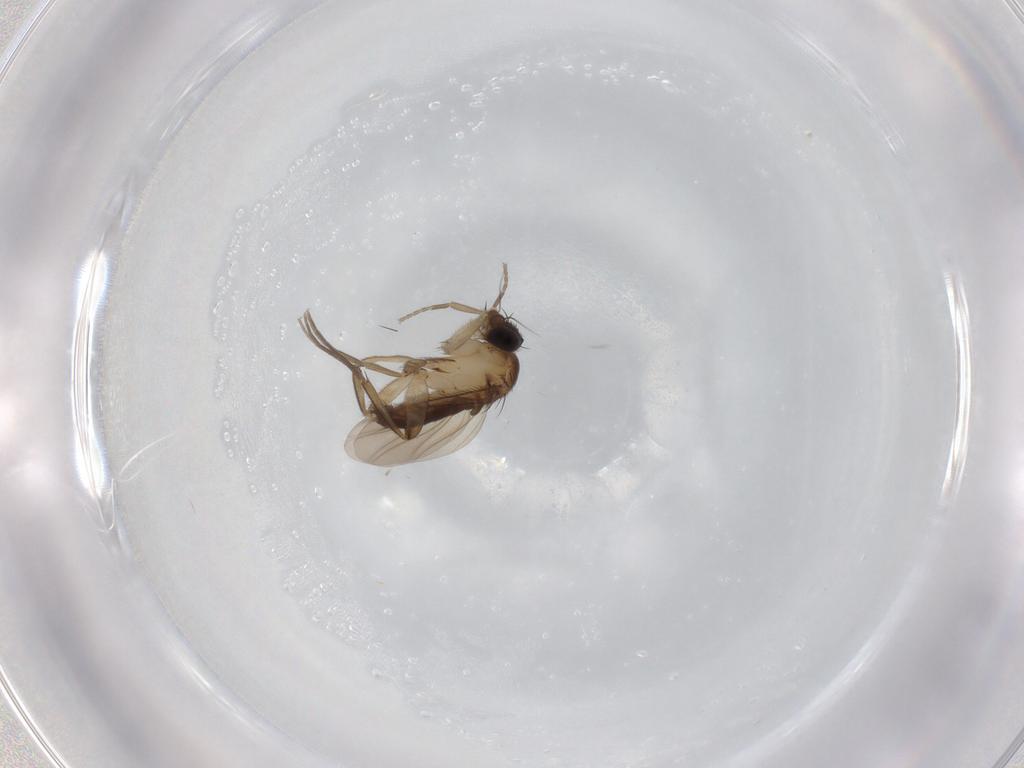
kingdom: Animalia
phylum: Arthropoda
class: Insecta
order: Diptera
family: Phoridae
